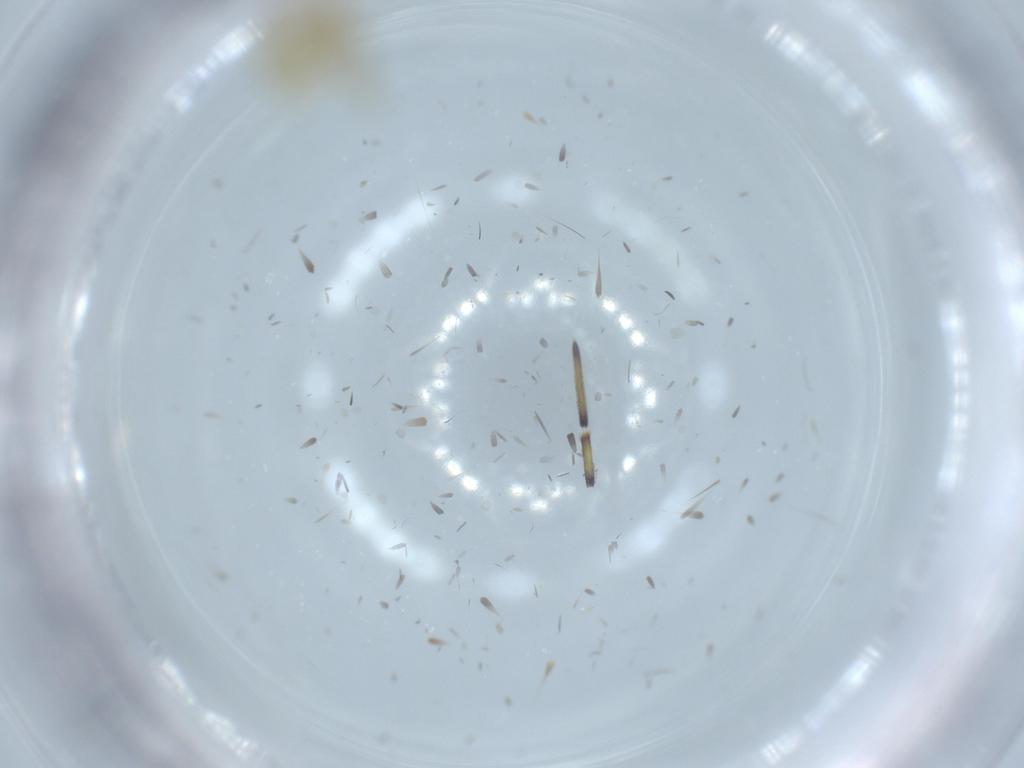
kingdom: Animalia
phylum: Arthropoda
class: Insecta
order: Hemiptera
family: Cicadellidae
